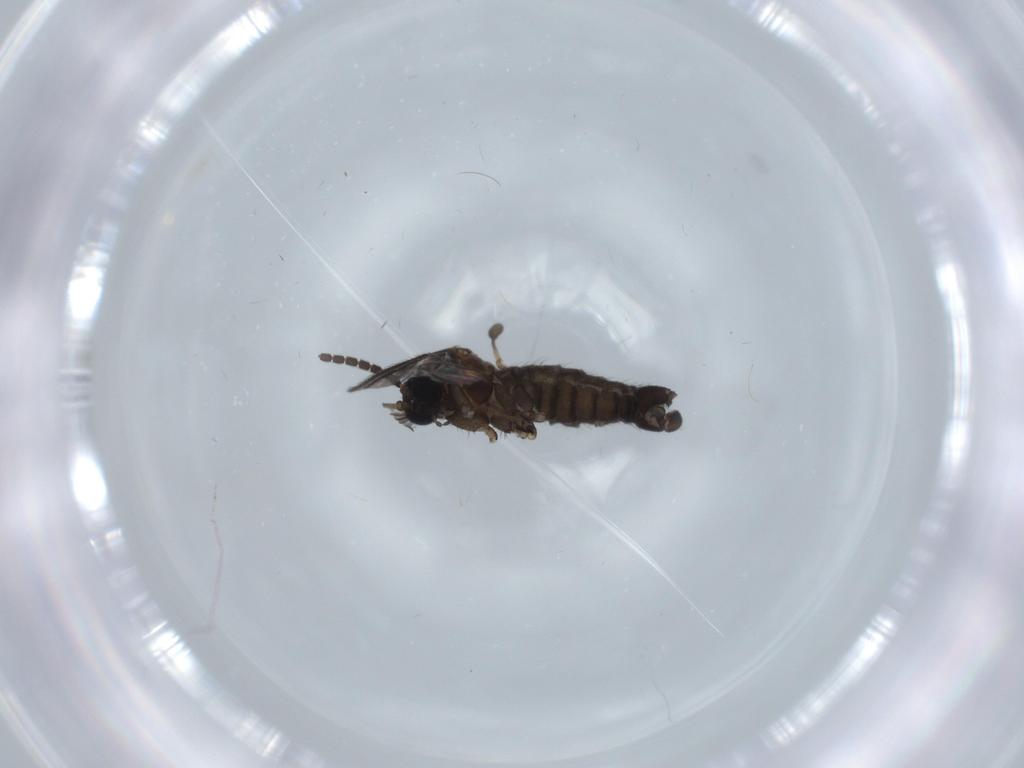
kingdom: Animalia
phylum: Arthropoda
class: Insecta
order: Diptera
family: Sciaridae
